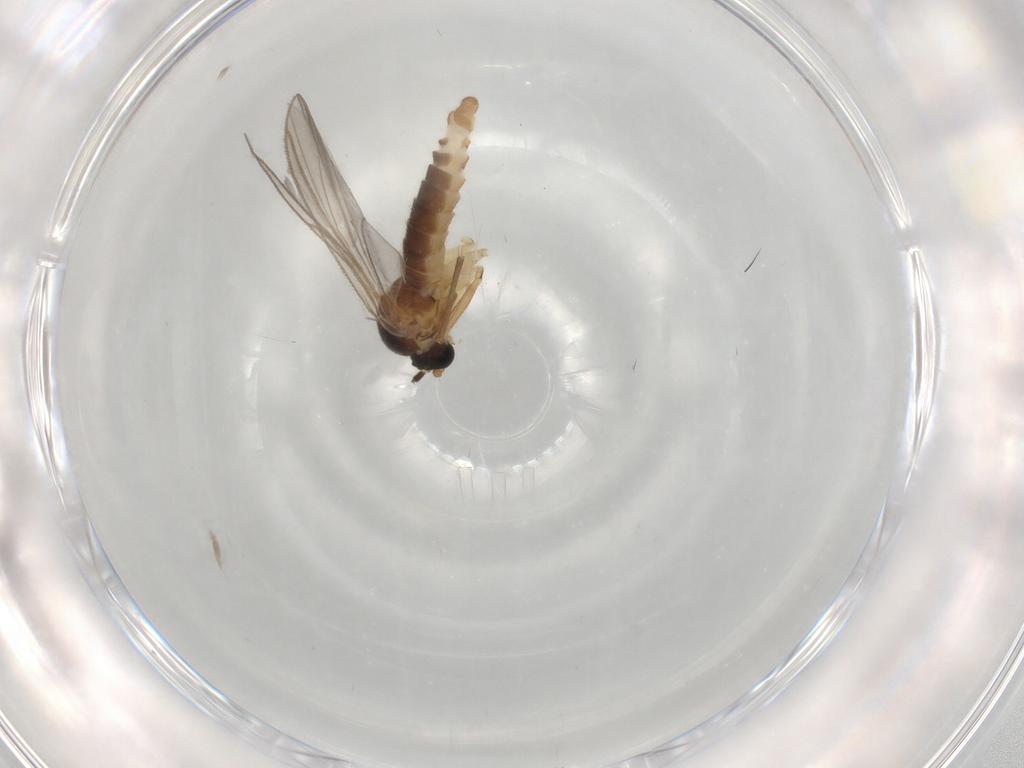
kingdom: Animalia
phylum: Arthropoda
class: Insecta
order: Diptera
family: Sciaridae
